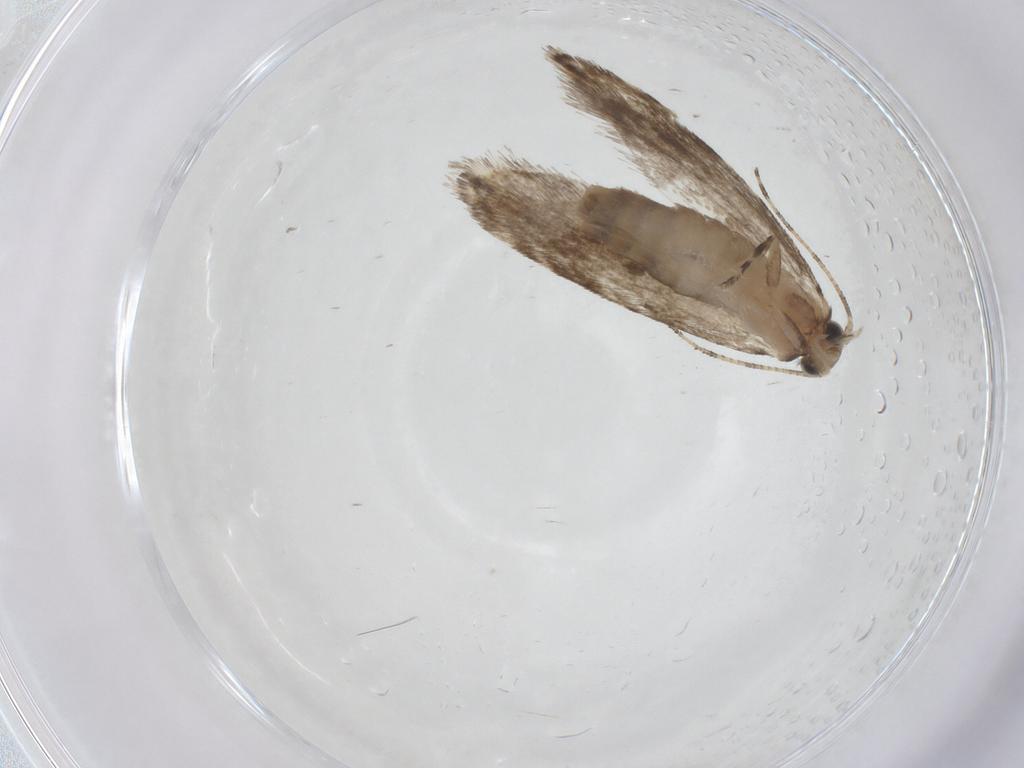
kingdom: Animalia
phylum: Arthropoda
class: Insecta
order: Lepidoptera
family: Tineidae
